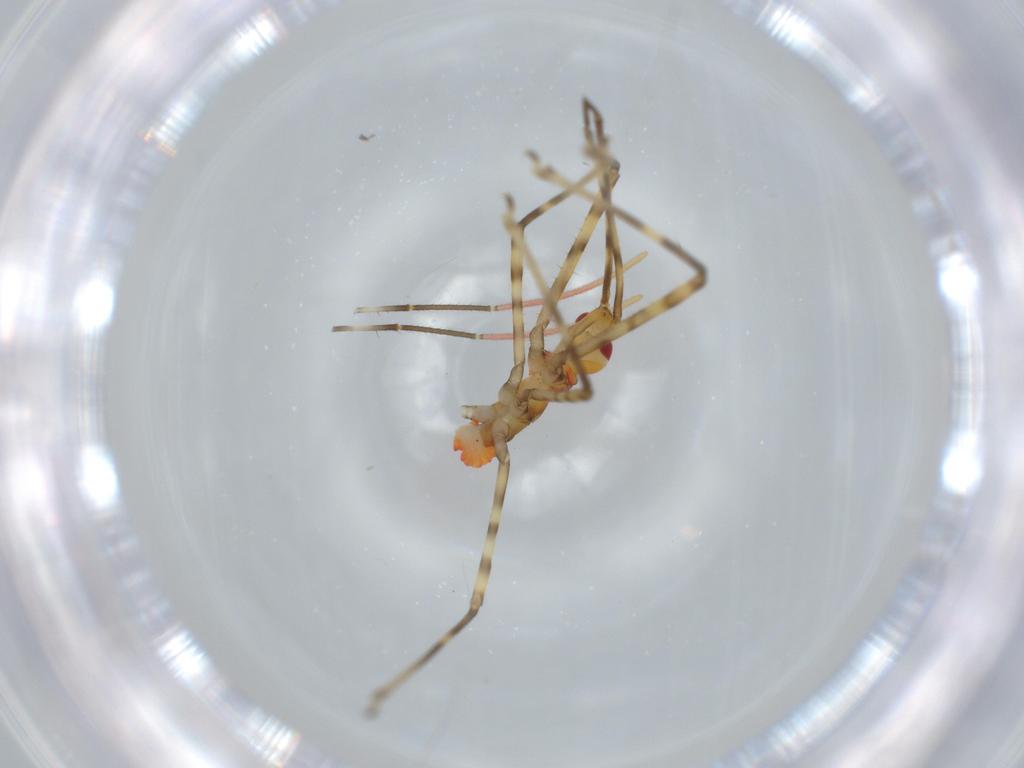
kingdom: Animalia
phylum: Arthropoda
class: Insecta
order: Hemiptera
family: Reduviidae
